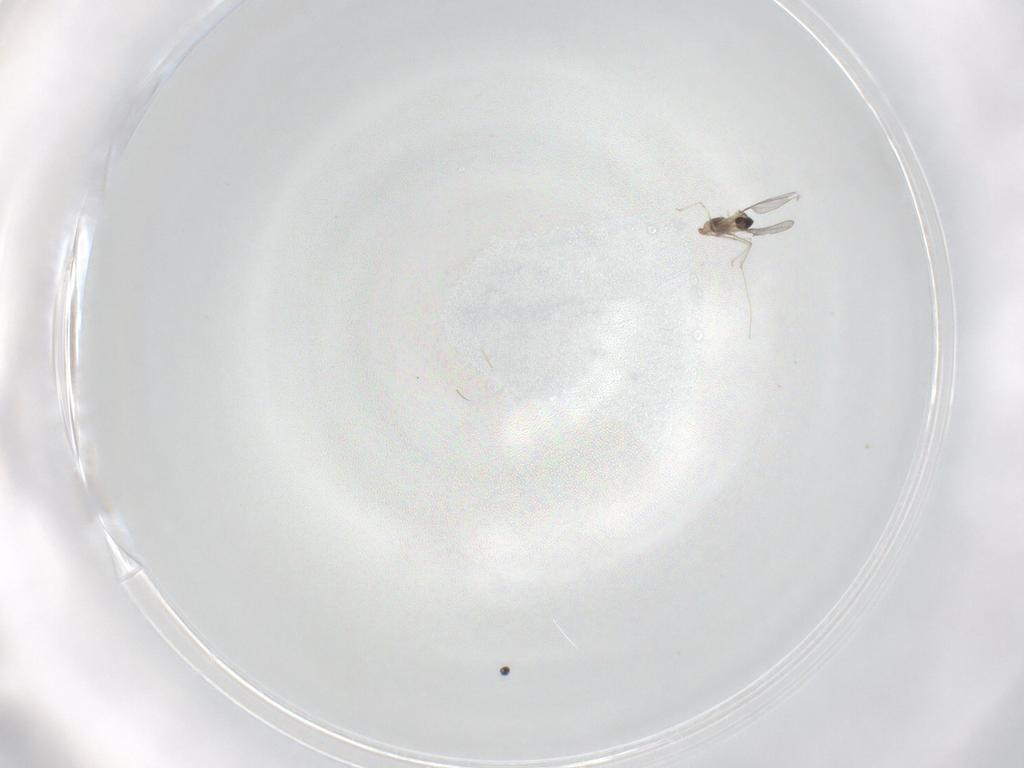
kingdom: Animalia
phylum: Arthropoda
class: Insecta
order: Diptera
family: Cecidomyiidae
